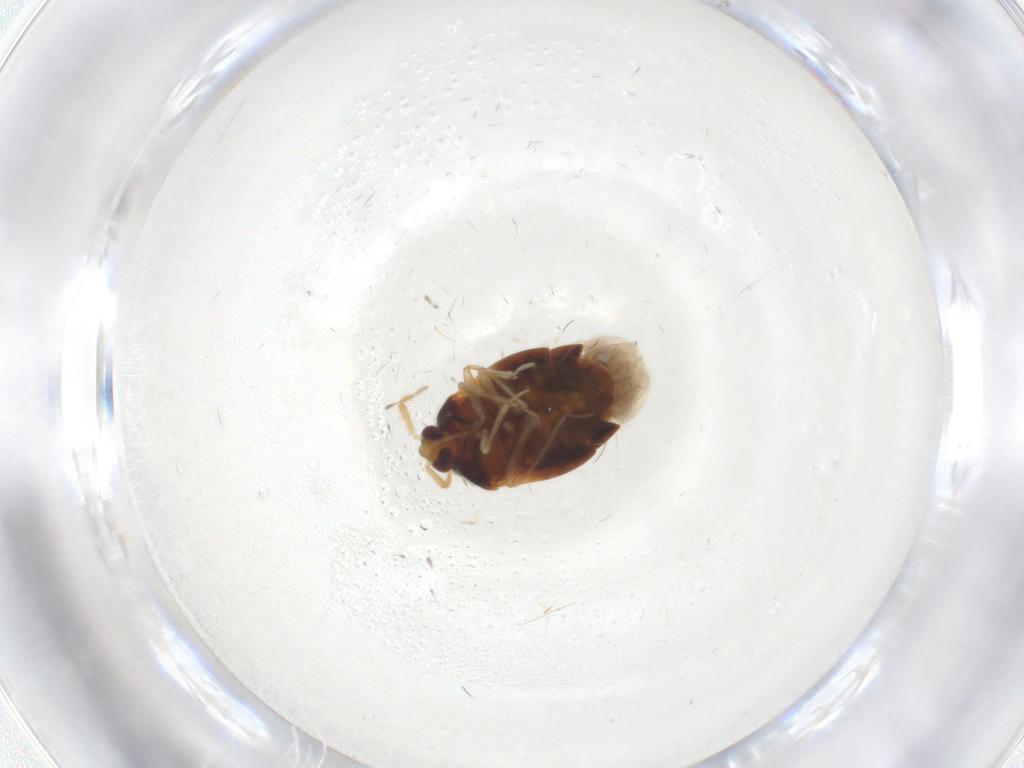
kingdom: Animalia
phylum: Arthropoda
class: Insecta
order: Hemiptera
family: Anthocoridae
